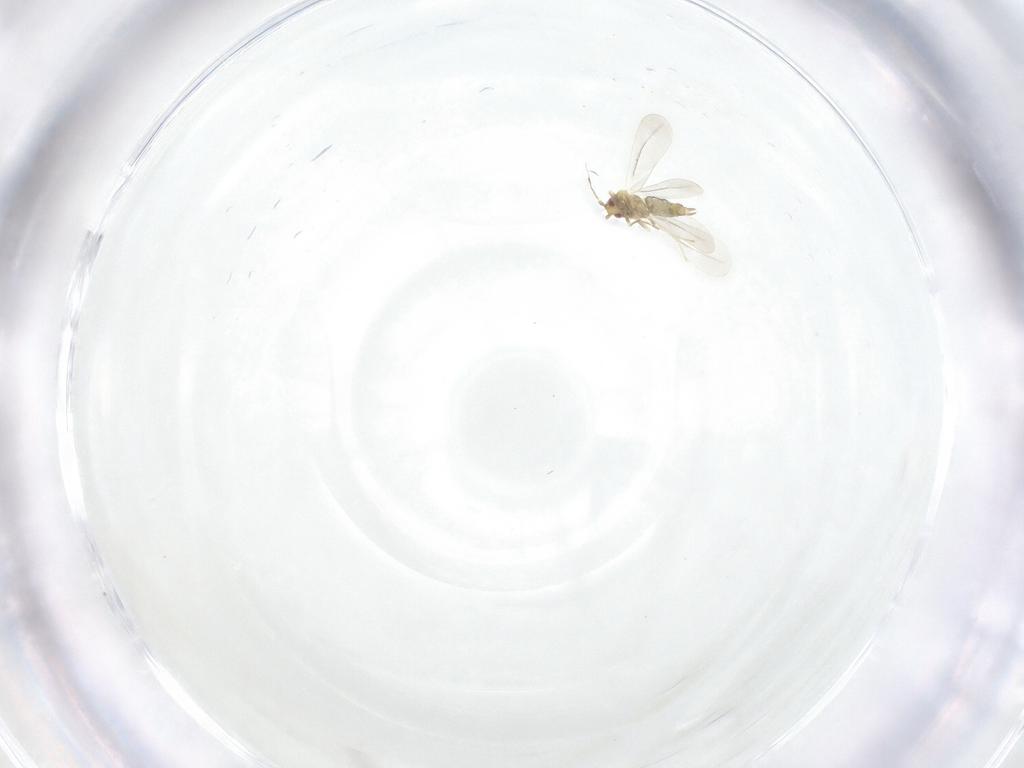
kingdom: Animalia
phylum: Arthropoda
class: Insecta
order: Hemiptera
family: Aleyrodidae
